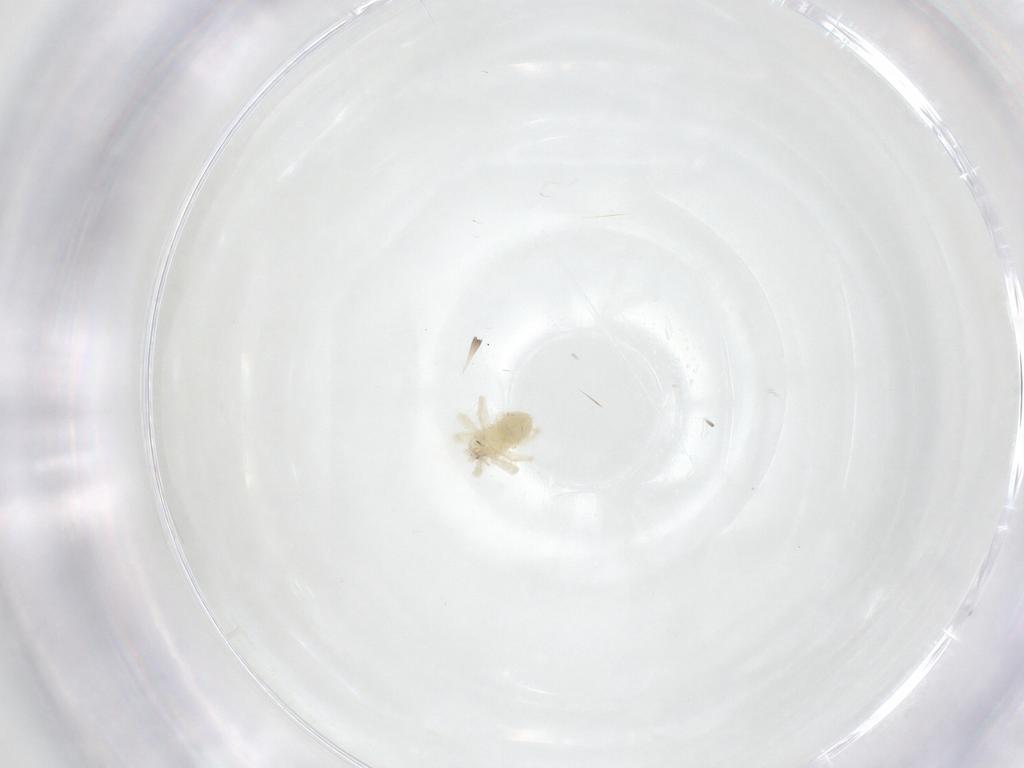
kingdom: Animalia
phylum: Arthropoda
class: Arachnida
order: Trombidiformes
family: Anystidae
